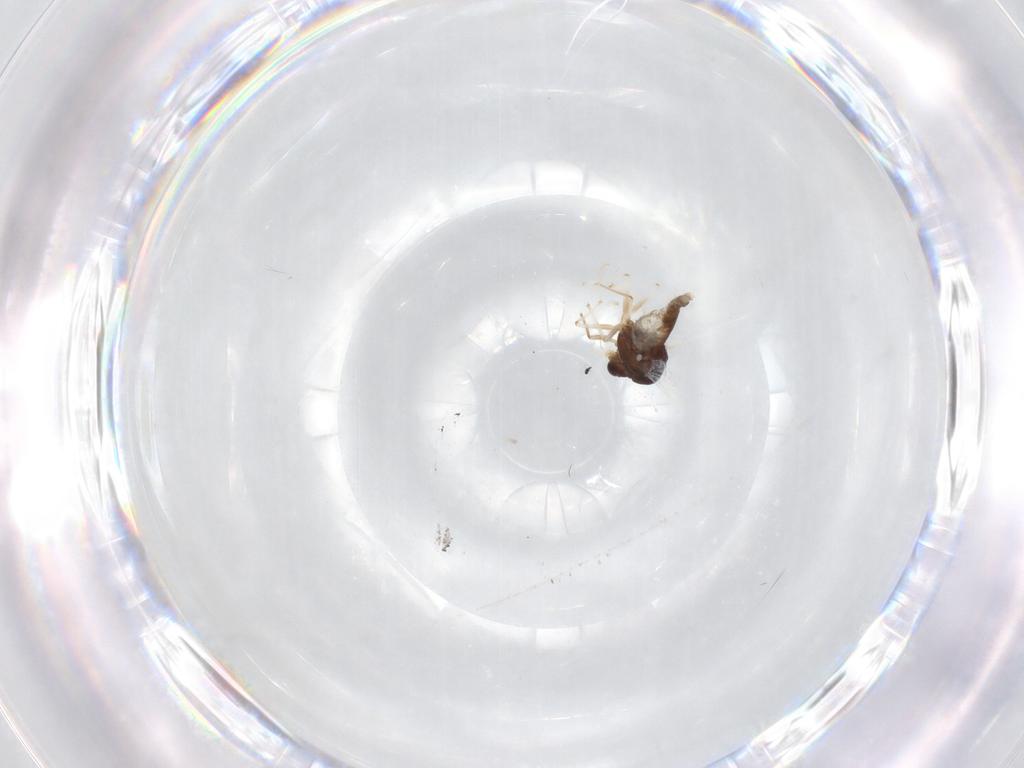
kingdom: Animalia
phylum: Arthropoda
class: Insecta
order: Diptera
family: Chironomidae
